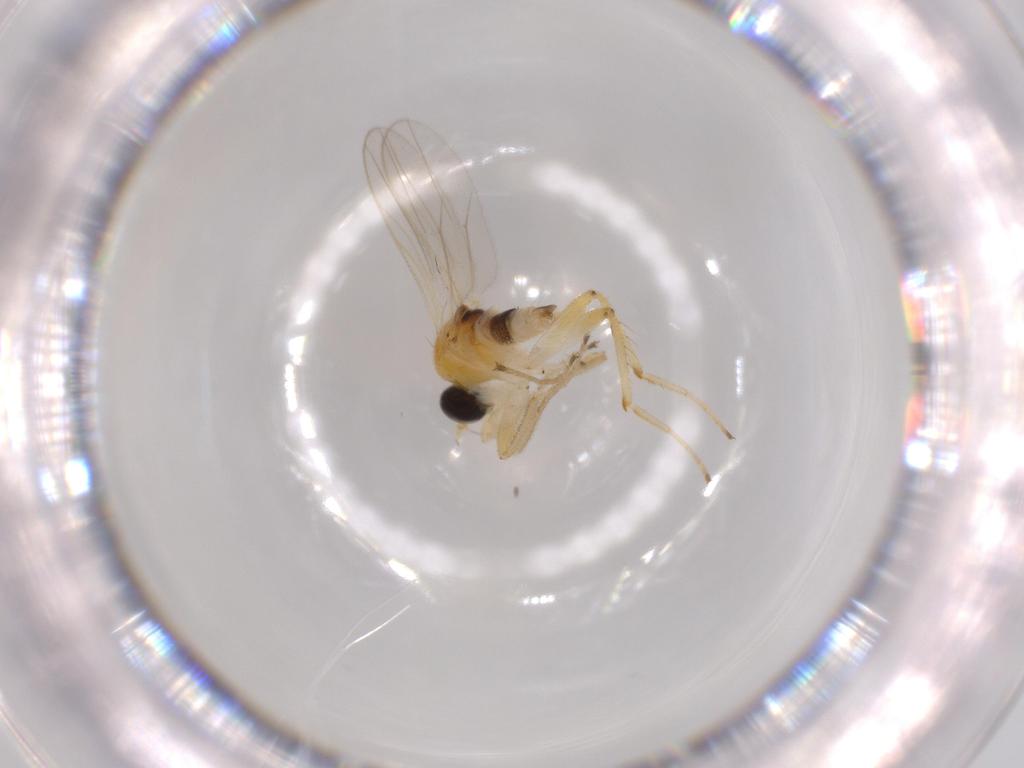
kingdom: Animalia
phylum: Arthropoda
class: Insecta
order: Diptera
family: Hybotidae
